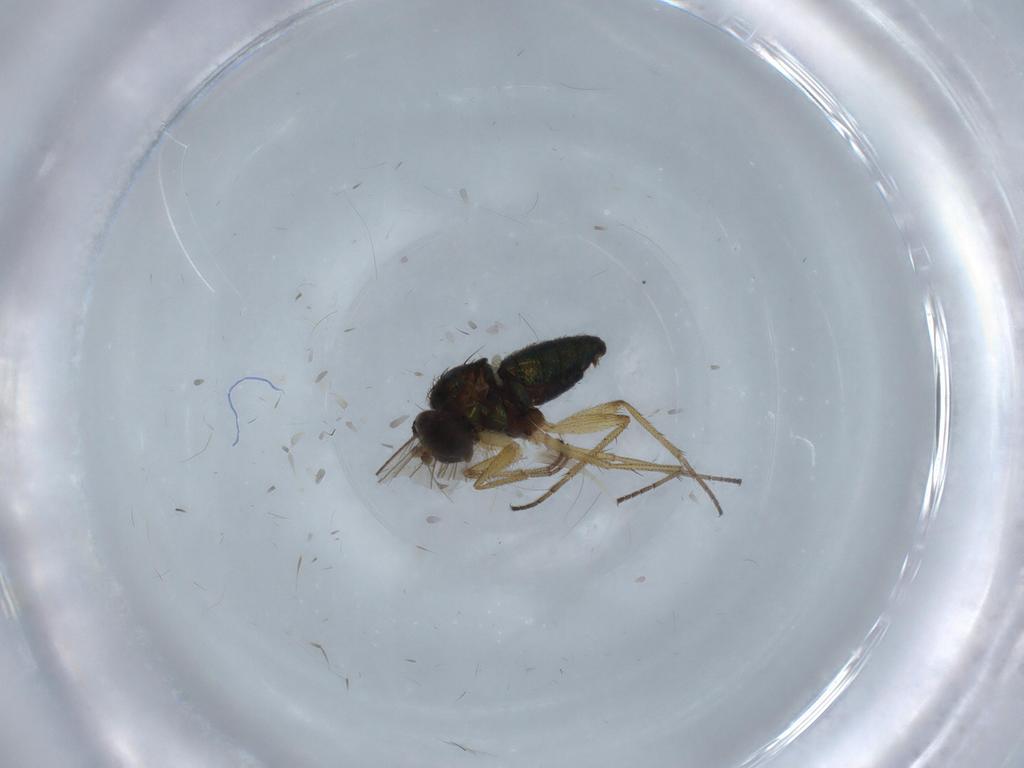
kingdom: Animalia
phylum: Arthropoda
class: Insecta
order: Diptera
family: Dolichopodidae
